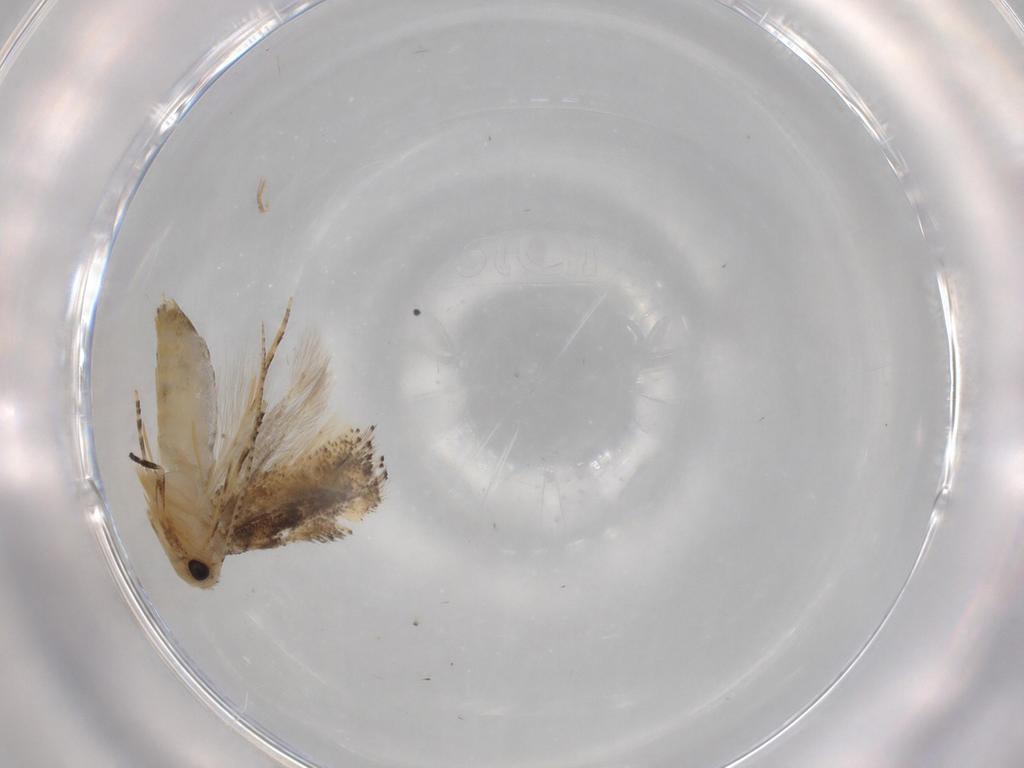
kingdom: Animalia
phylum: Arthropoda
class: Insecta
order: Lepidoptera
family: Bucculatricidae
